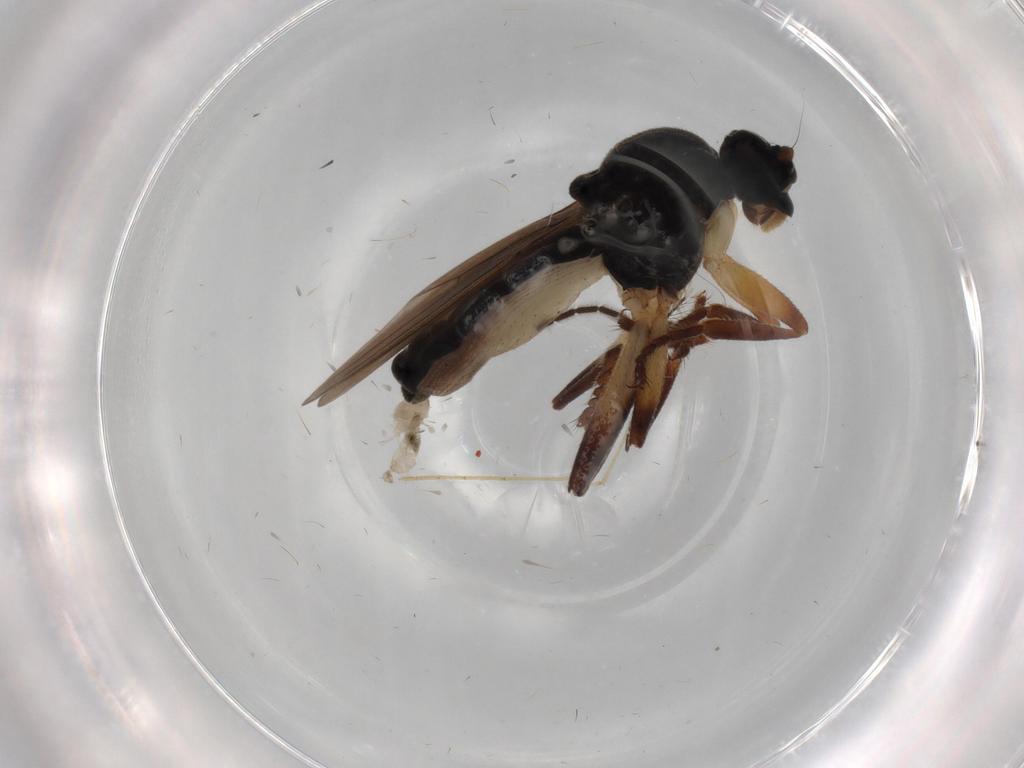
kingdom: Animalia
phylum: Arthropoda
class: Insecta
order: Diptera
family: Sphaeroceridae
